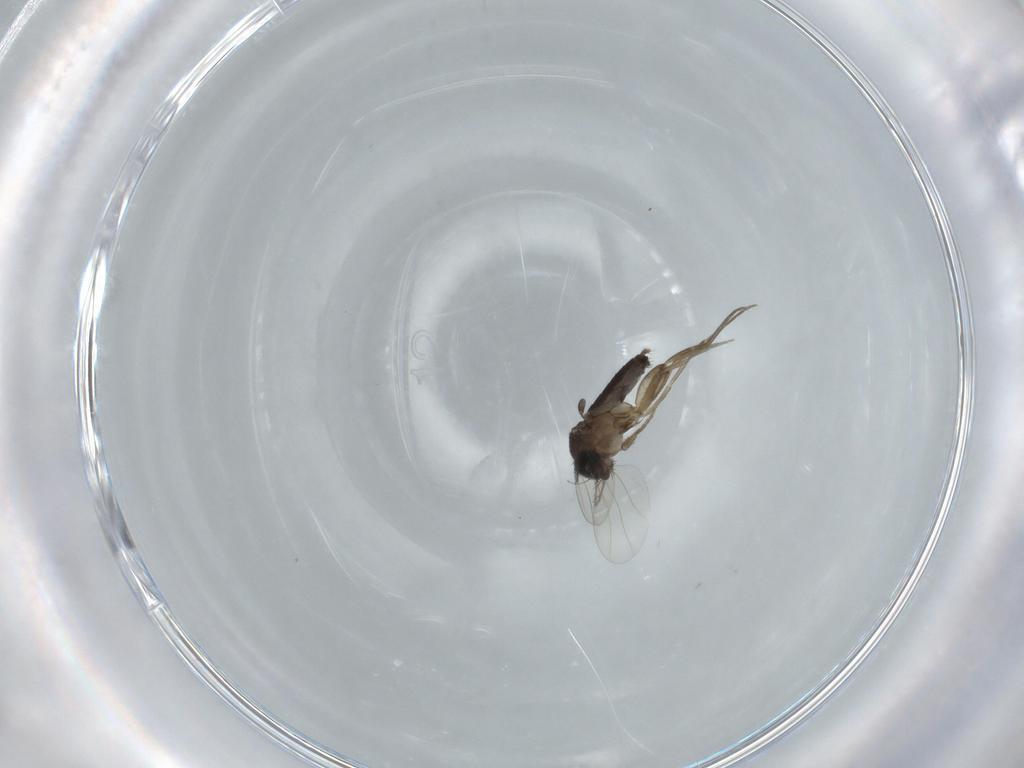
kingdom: Animalia
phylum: Arthropoda
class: Insecta
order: Diptera
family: Phoridae
